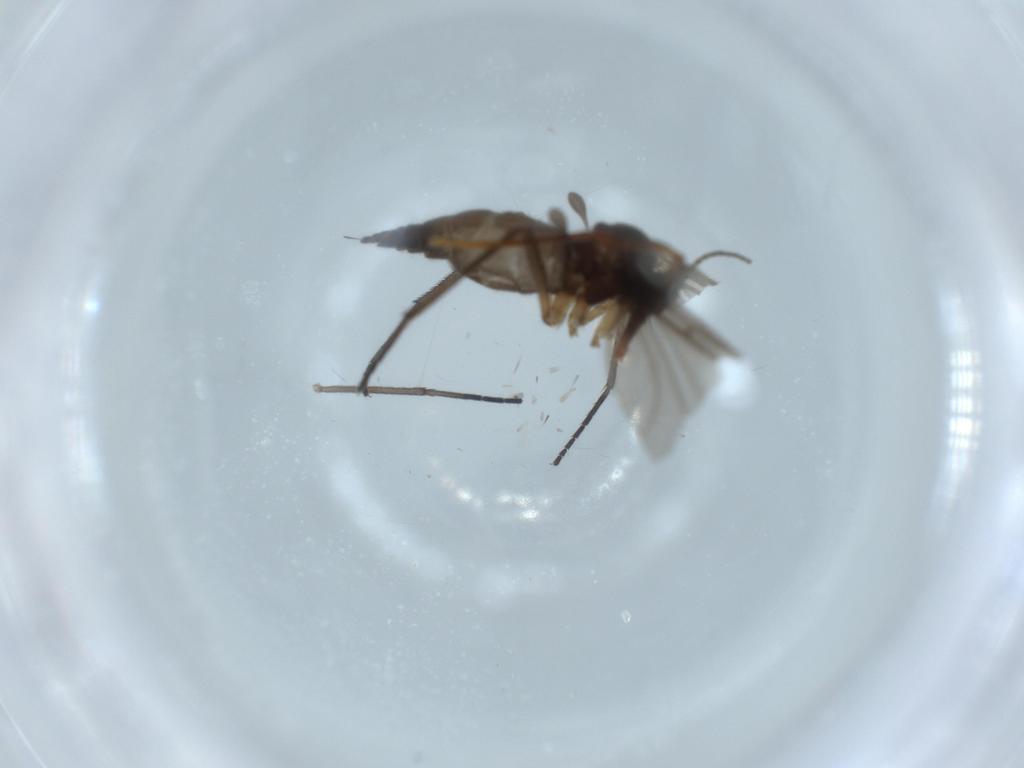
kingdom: Animalia
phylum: Arthropoda
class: Insecta
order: Diptera
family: Sciaridae
